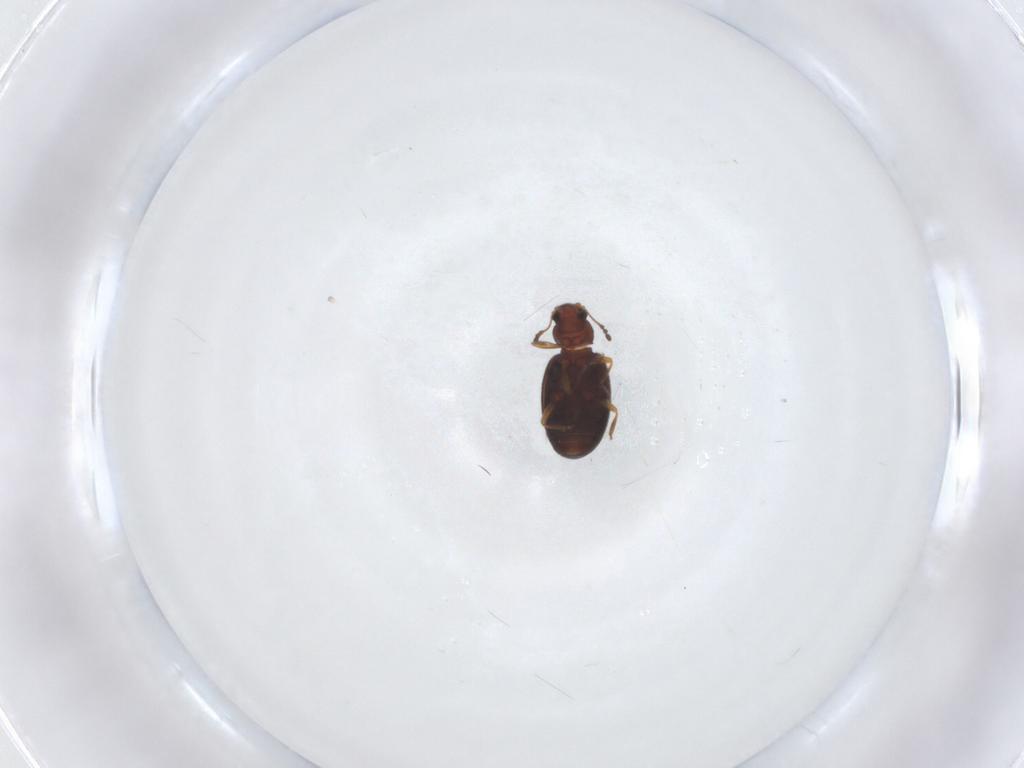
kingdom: Animalia
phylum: Arthropoda
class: Insecta
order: Coleoptera
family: Latridiidae
